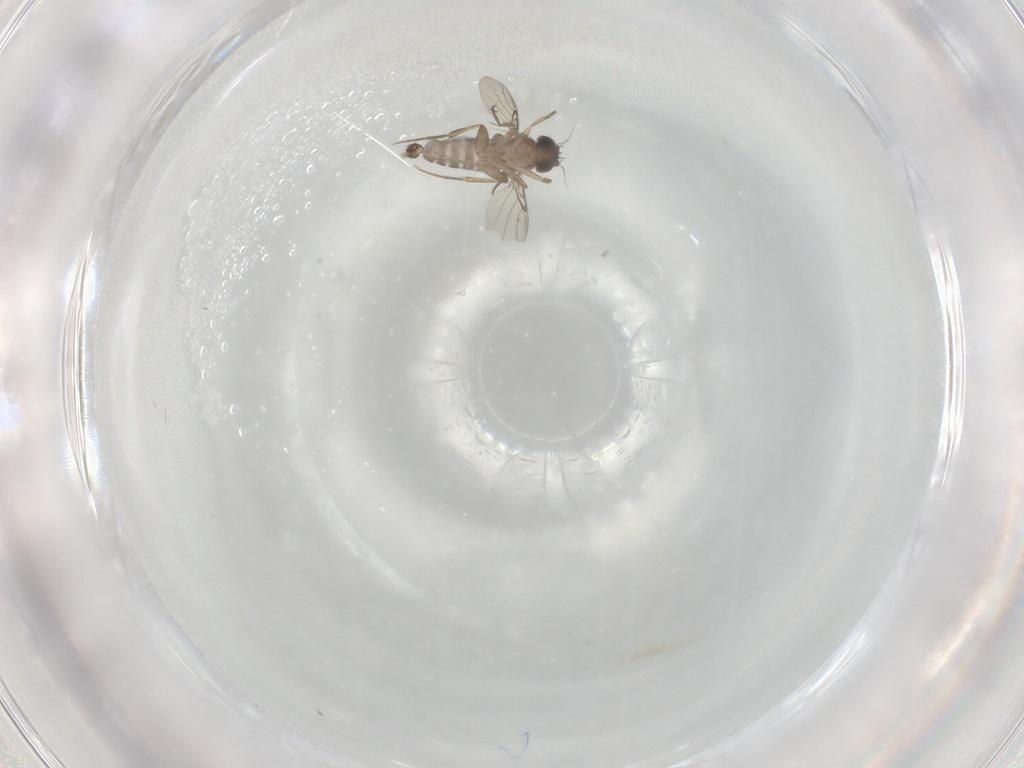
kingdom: Animalia
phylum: Arthropoda
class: Insecta
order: Diptera
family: Phoridae
